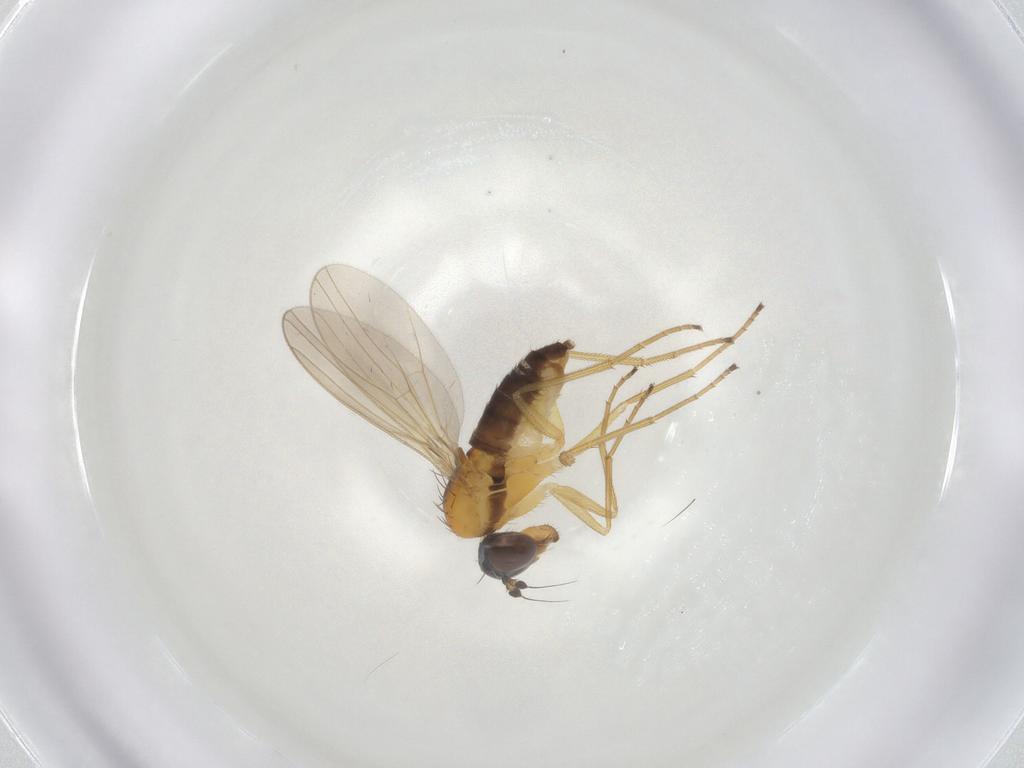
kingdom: Animalia
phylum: Arthropoda
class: Insecta
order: Diptera
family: Dolichopodidae
